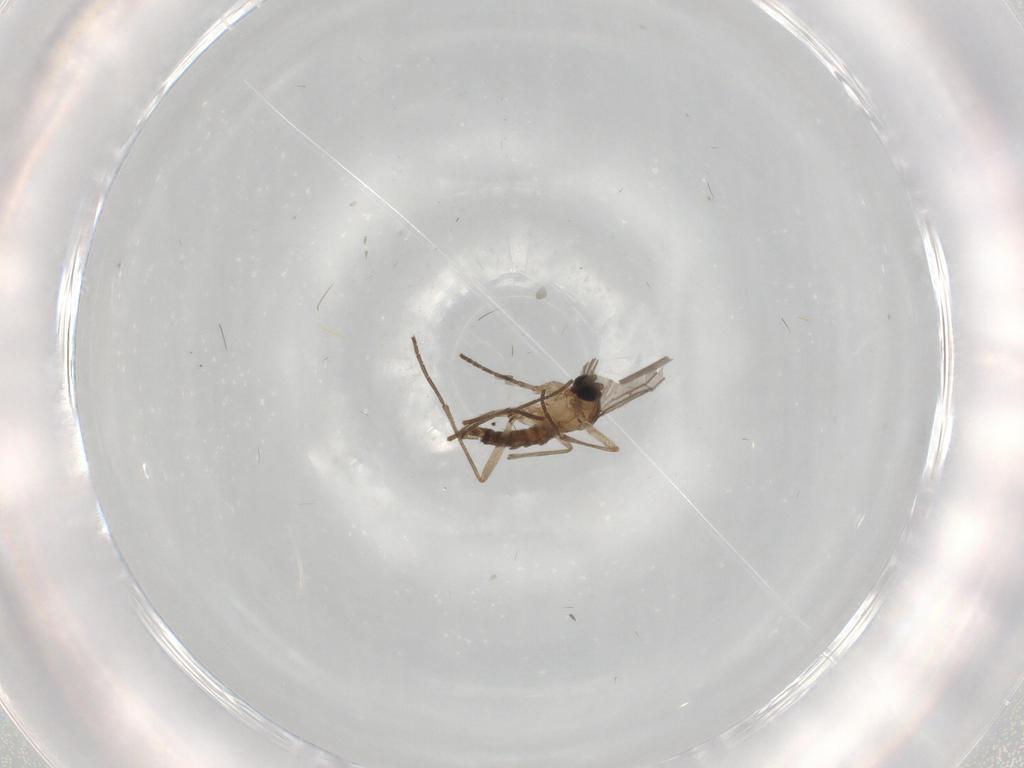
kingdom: Animalia
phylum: Arthropoda
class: Insecta
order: Diptera
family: Sciaridae
